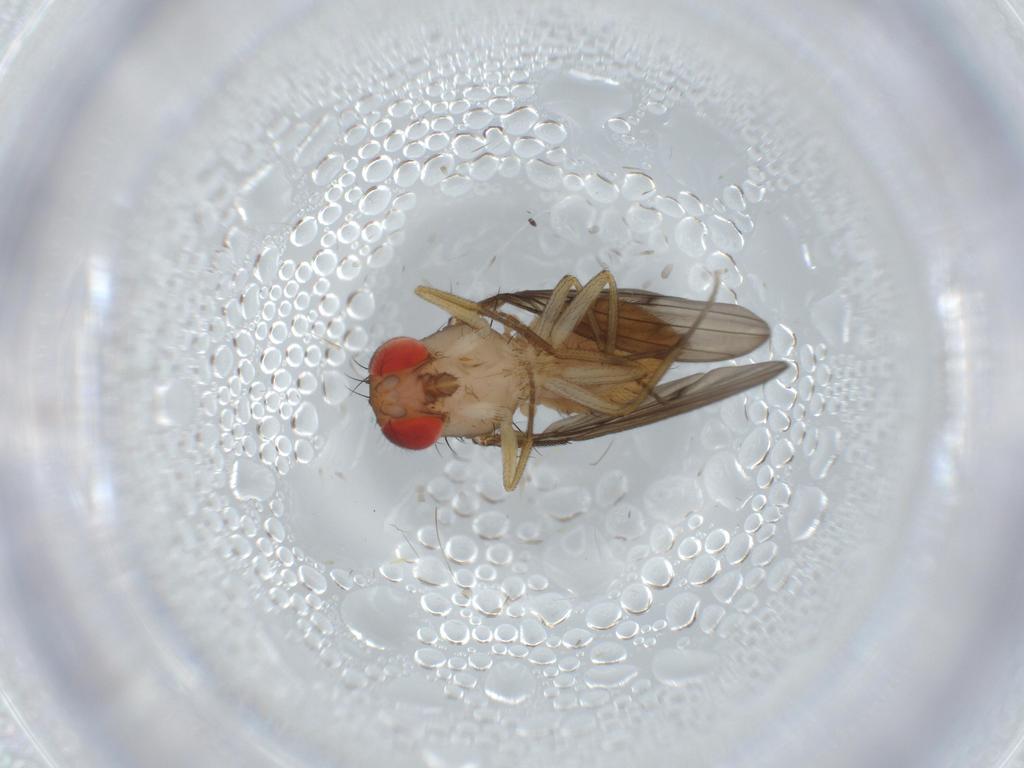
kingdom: Animalia
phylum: Arthropoda
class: Insecta
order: Diptera
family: Drosophilidae
